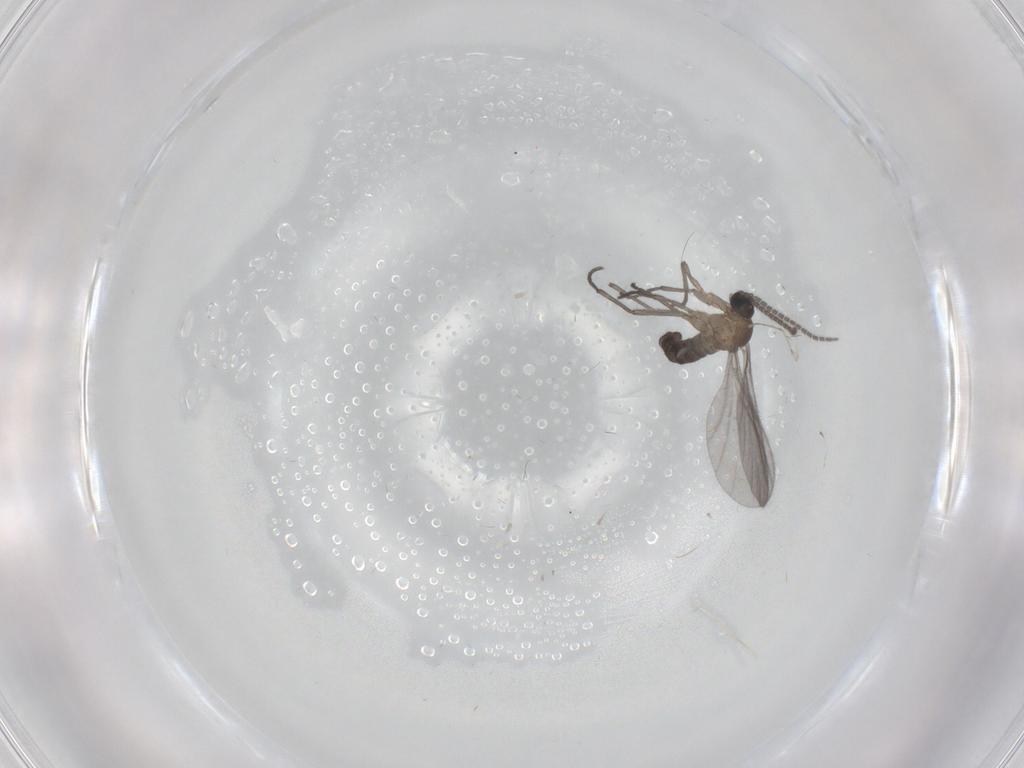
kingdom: Animalia
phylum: Arthropoda
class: Insecta
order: Diptera
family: Sciaridae
